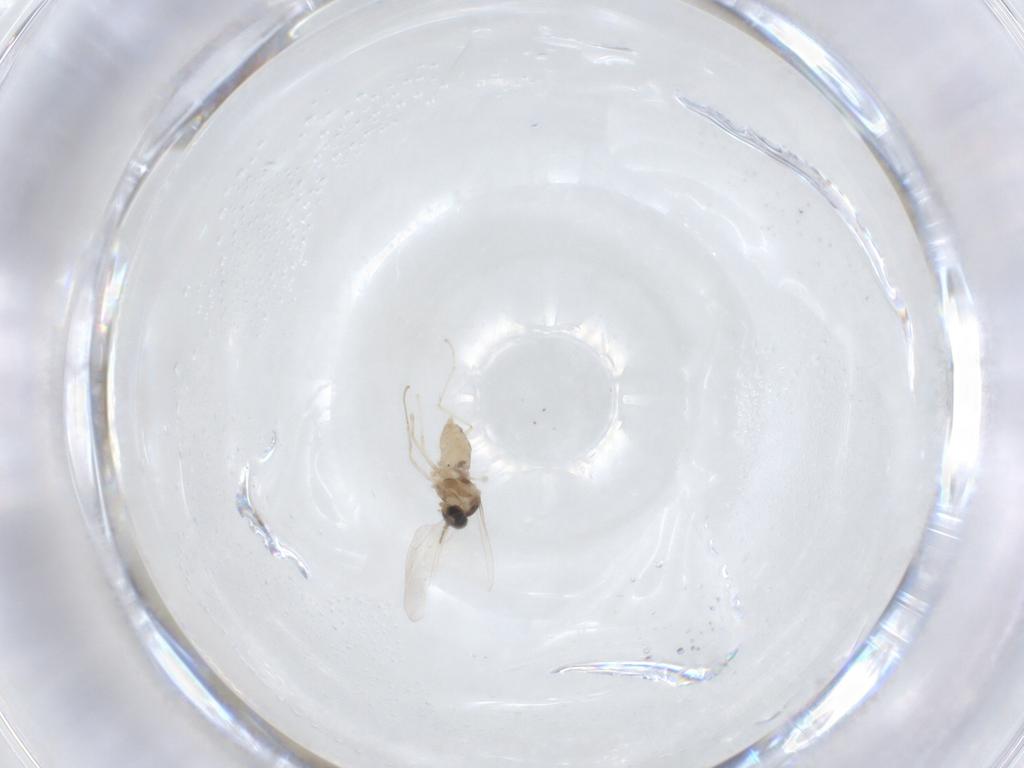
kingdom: Animalia
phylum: Arthropoda
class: Insecta
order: Diptera
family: Cecidomyiidae
